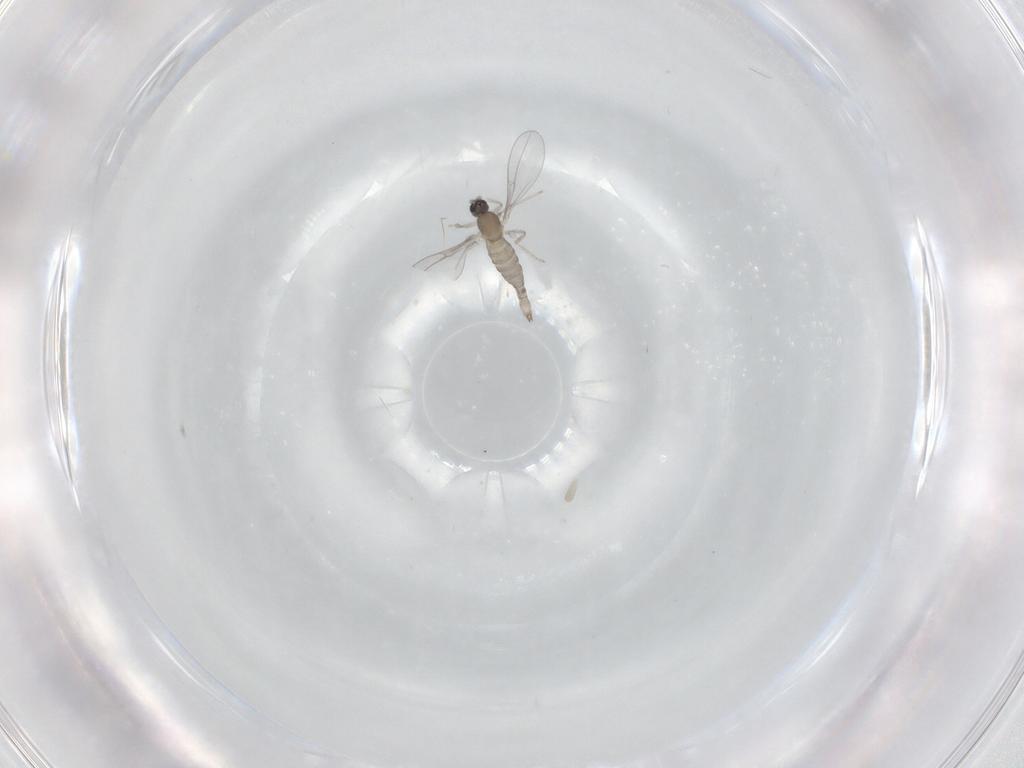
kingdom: Animalia
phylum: Arthropoda
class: Insecta
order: Diptera
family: Cecidomyiidae
